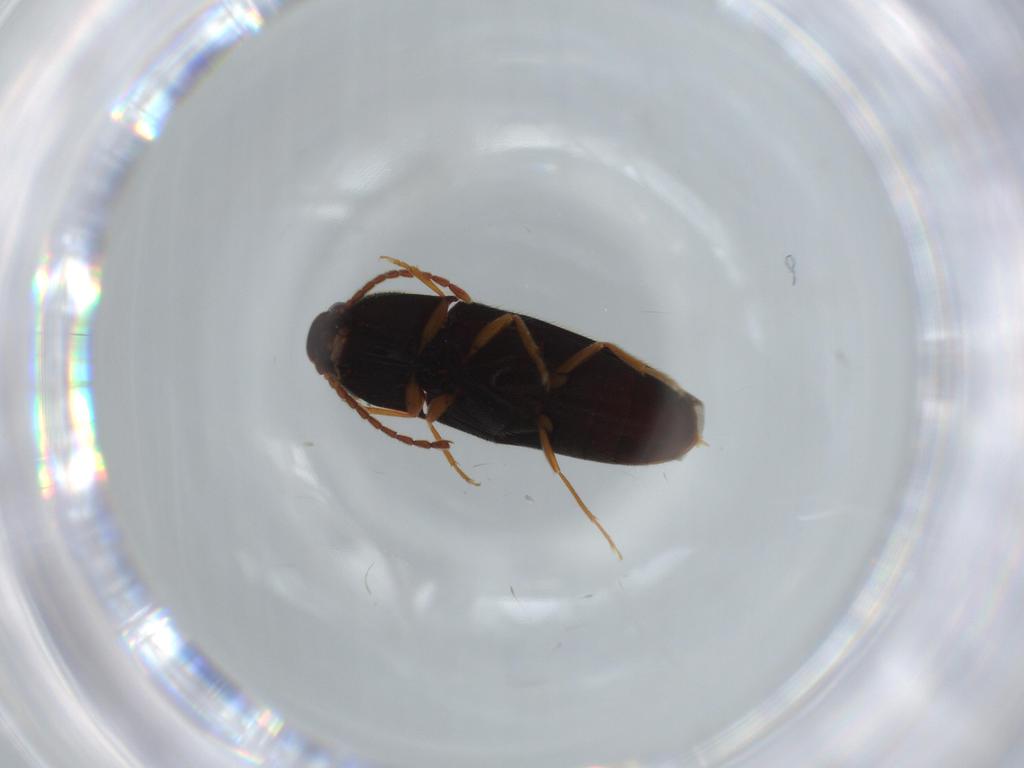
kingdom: Animalia
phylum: Arthropoda
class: Insecta
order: Coleoptera
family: Elateridae
